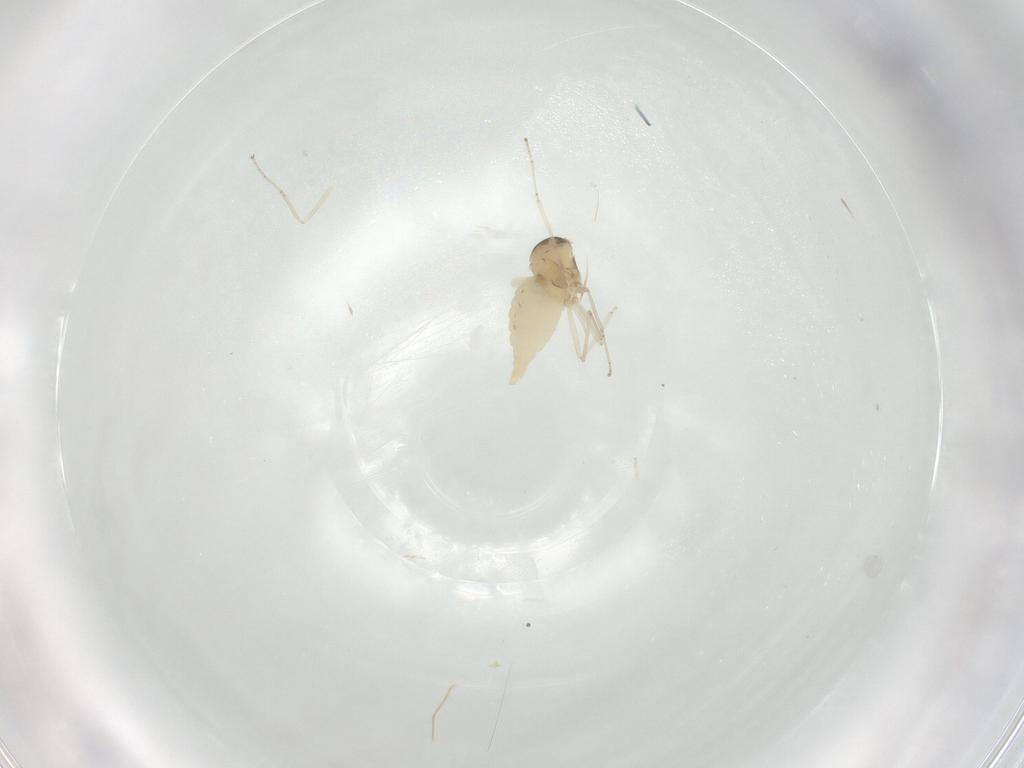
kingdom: Animalia
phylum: Arthropoda
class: Insecta
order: Diptera
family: Cecidomyiidae
